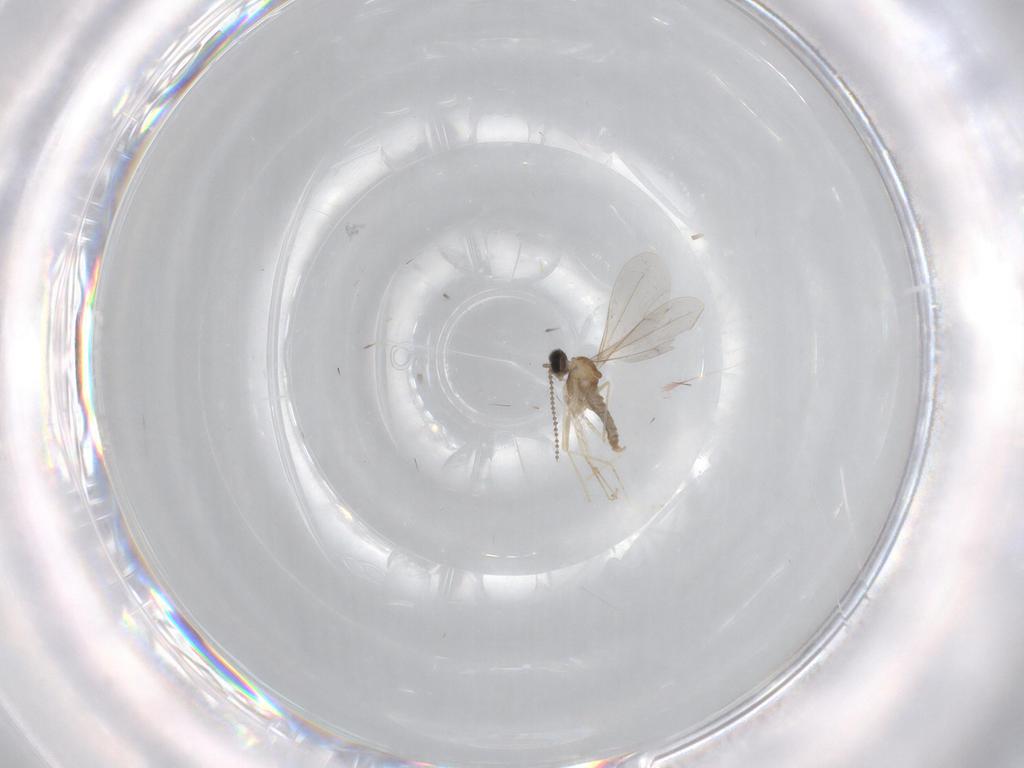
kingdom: Animalia
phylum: Arthropoda
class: Insecta
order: Diptera
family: Cecidomyiidae
